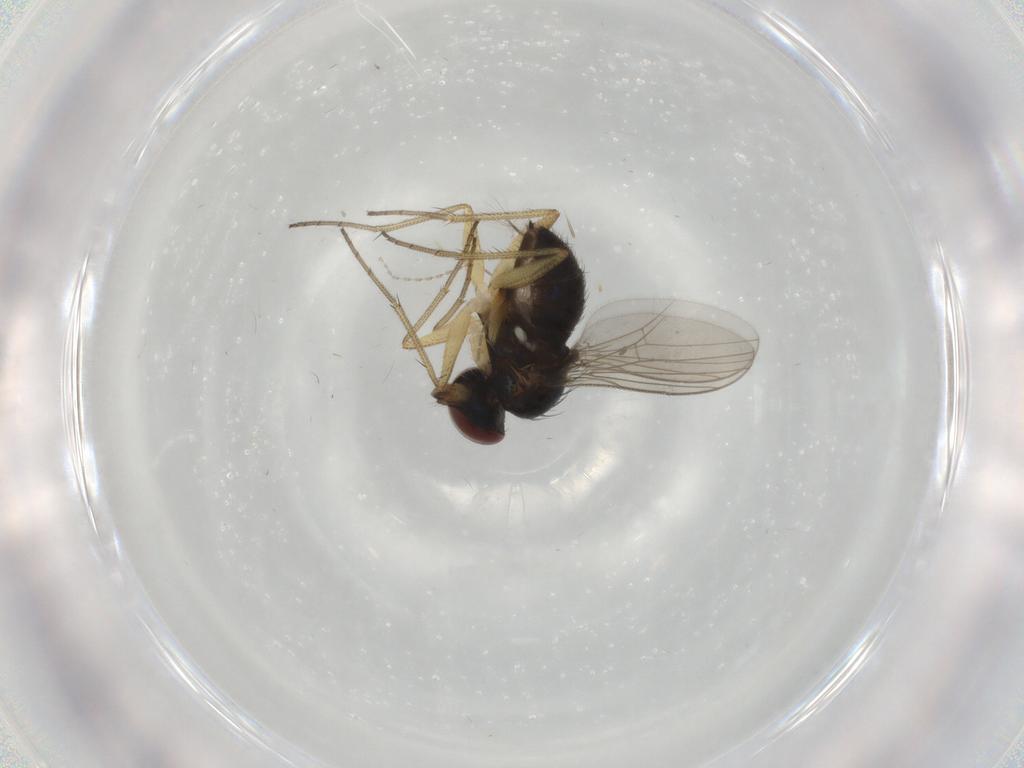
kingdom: Animalia
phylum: Arthropoda
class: Insecta
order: Diptera
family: Dolichopodidae
